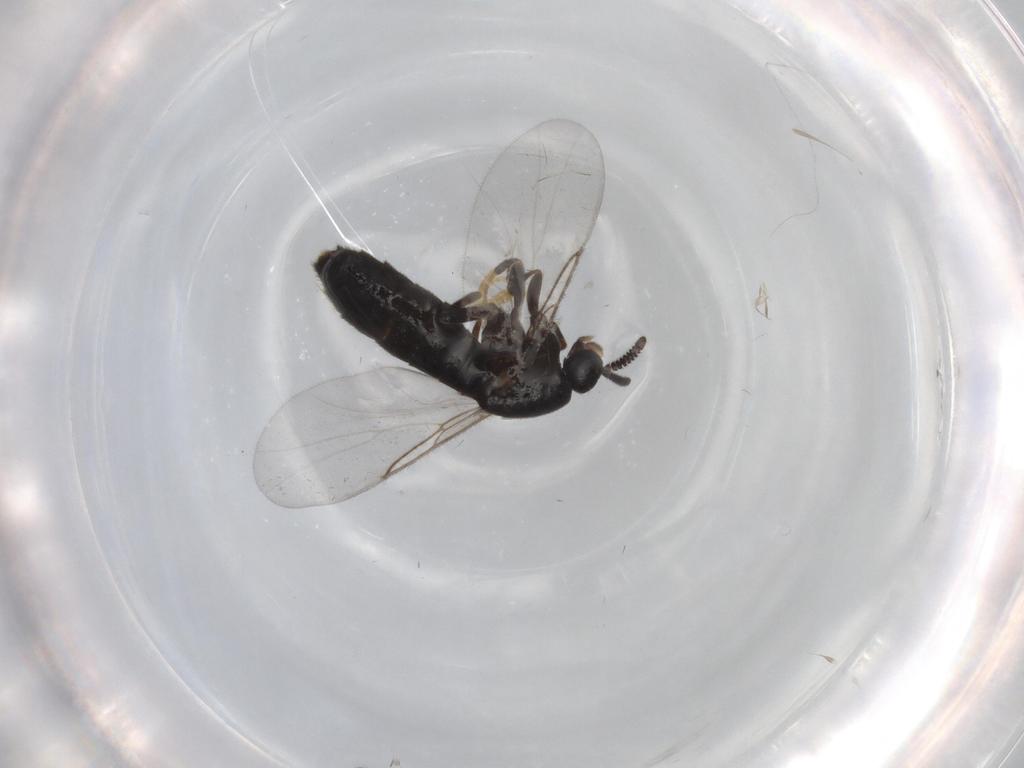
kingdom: Animalia
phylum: Arthropoda
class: Insecta
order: Diptera
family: Scatopsidae
